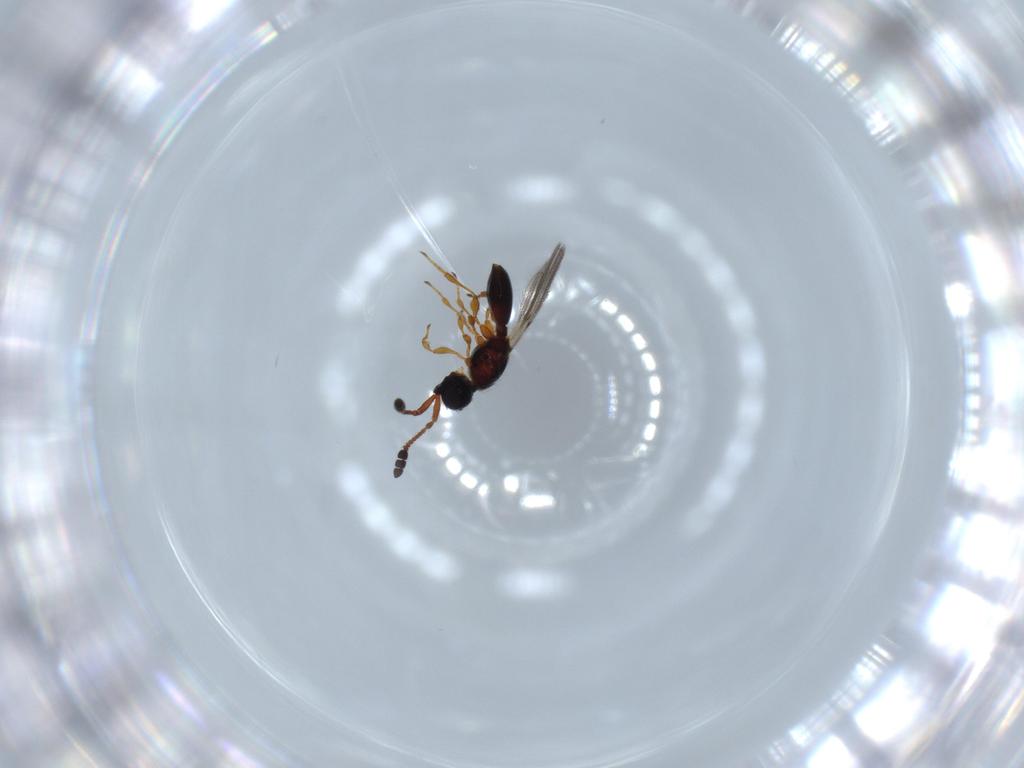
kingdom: Animalia
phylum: Arthropoda
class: Insecta
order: Hymenoptera
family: Diapriidae
